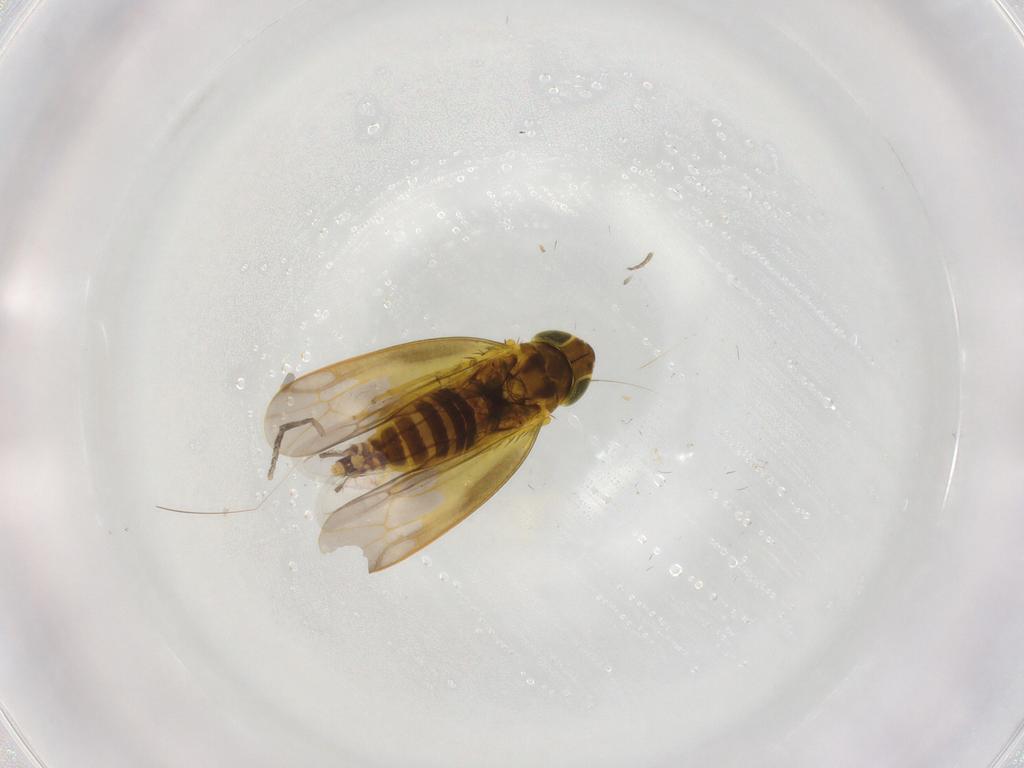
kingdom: Animalia
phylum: Arthropoda
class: Insecta
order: Hemiptera
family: Cicadellidae
